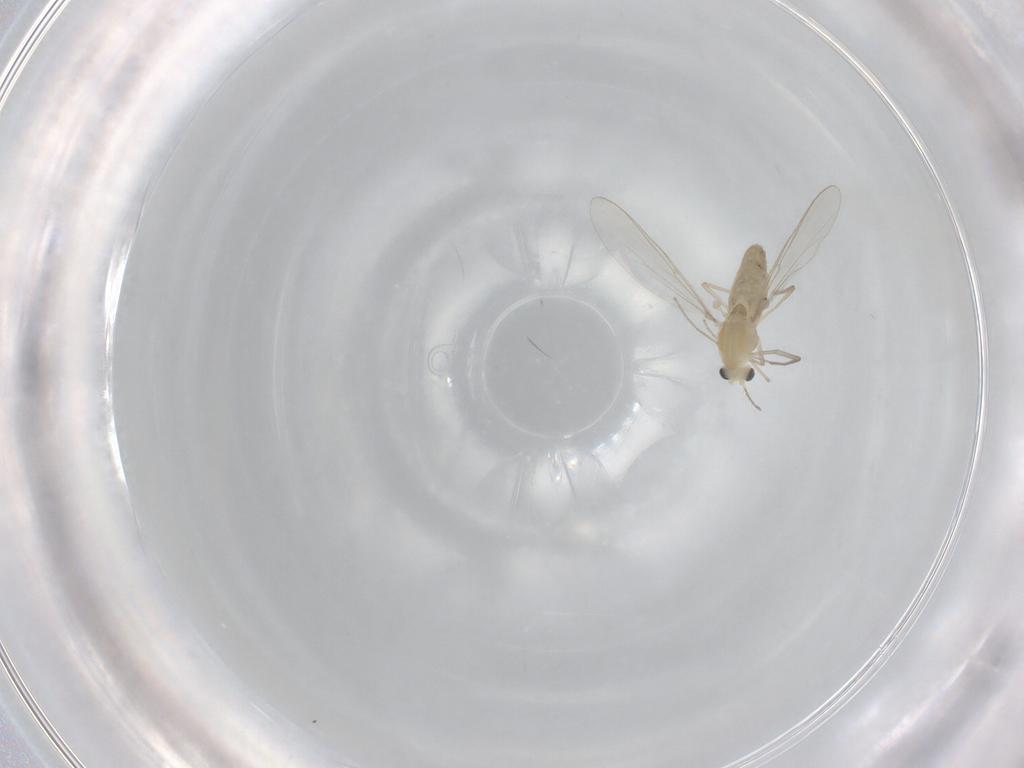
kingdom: Animalia
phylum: Arthropoda
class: Insecta
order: Diptera
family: Chironomidae
